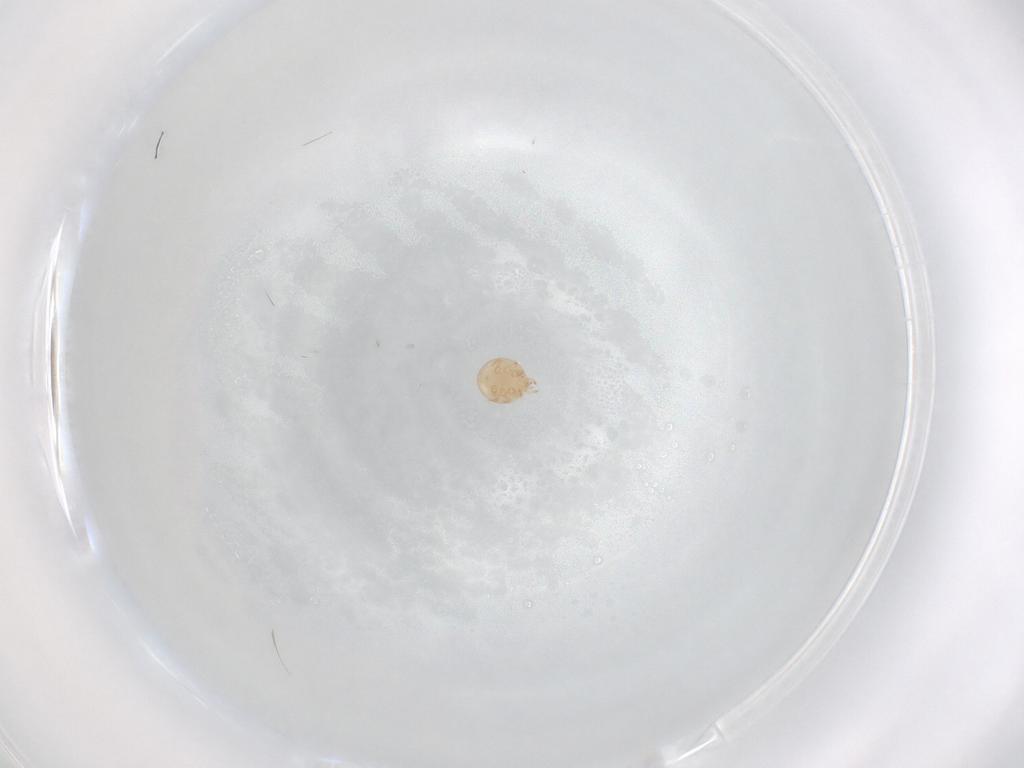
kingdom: Animalia
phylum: Arthropoda
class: Arachnida
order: Mesostigmata
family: Trematuridae
